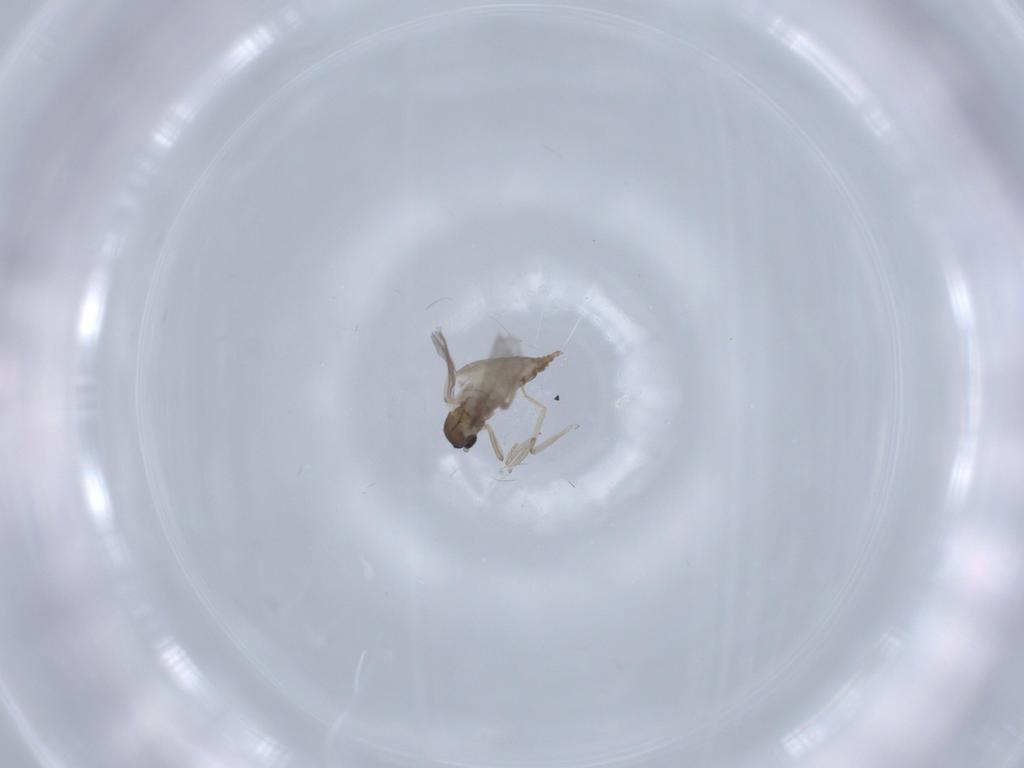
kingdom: Animalia
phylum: Arthropoda
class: Insecta
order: Diptera
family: Cecidomyiidae
